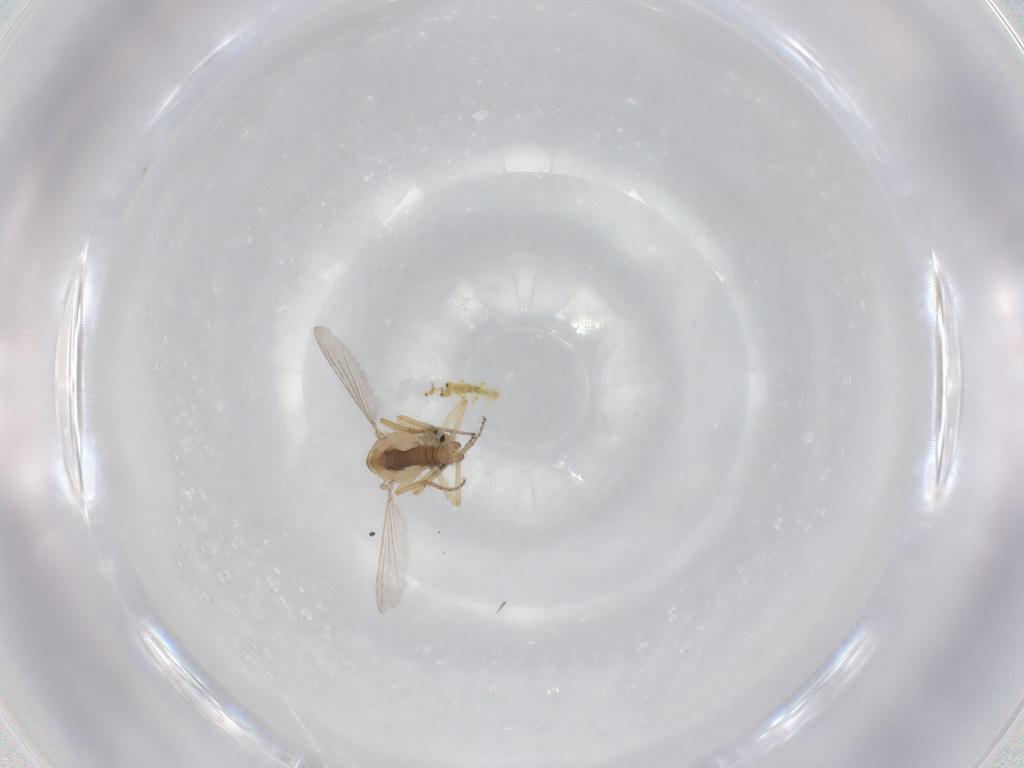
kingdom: Animalia
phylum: Arthropoda
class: Insecta
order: Diptera
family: Ceratopogonidae
